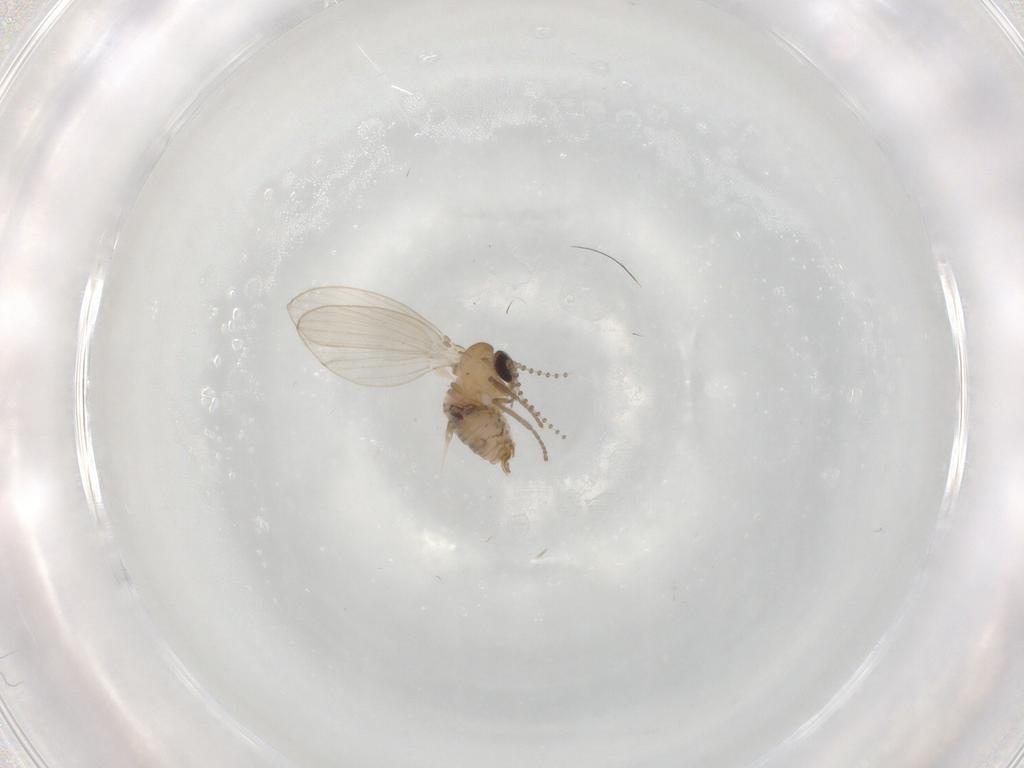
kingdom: Animalia
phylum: Arthropoda
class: Insecta
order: Diptera
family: Psychodidae
